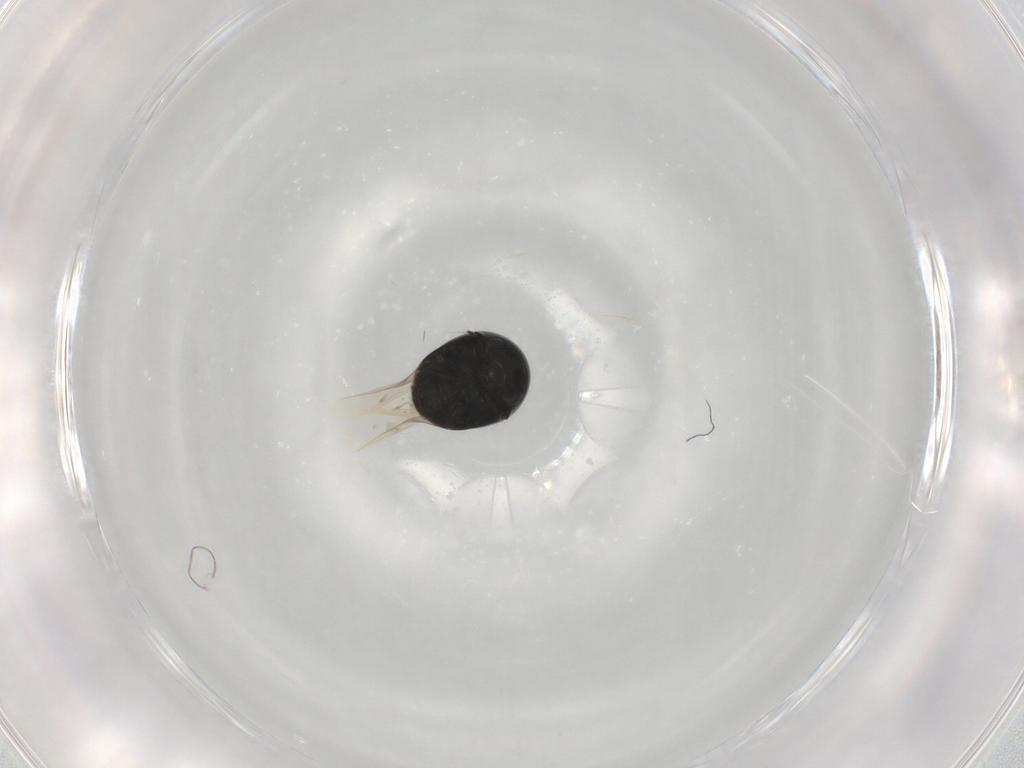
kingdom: Animalia
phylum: Arthropoda
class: Insecta
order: Coleoptera
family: Cybocephalidae
